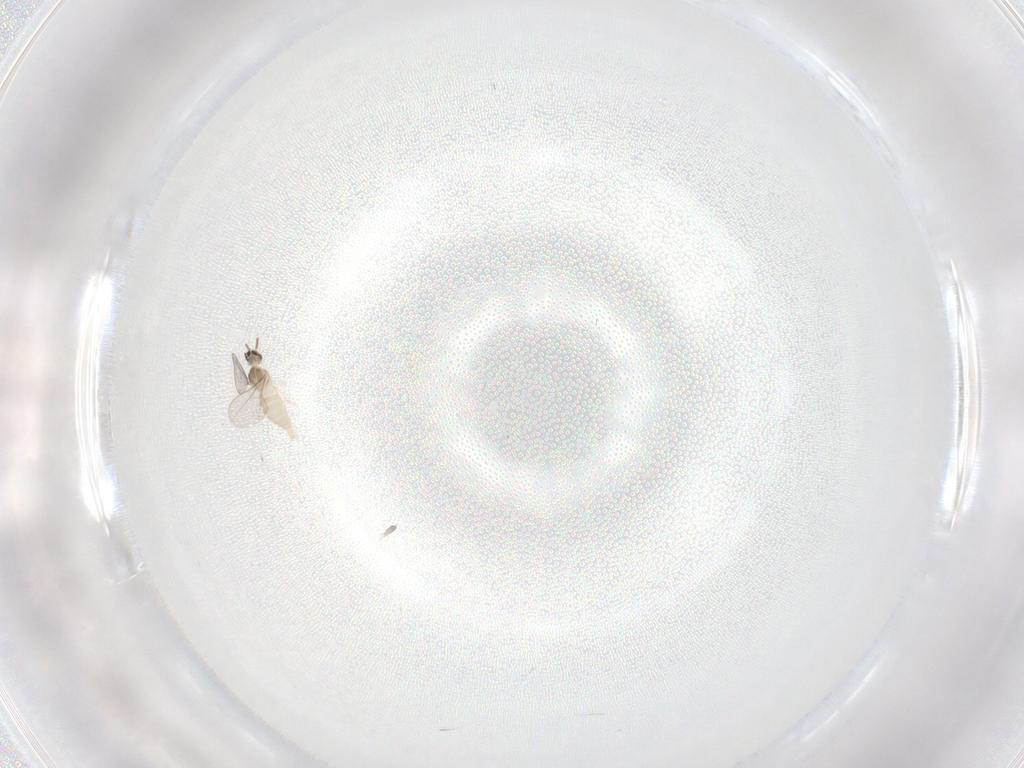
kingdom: Animalia
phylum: Arthropoda
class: Insecta
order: Diptera
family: Cecidomyiidae
